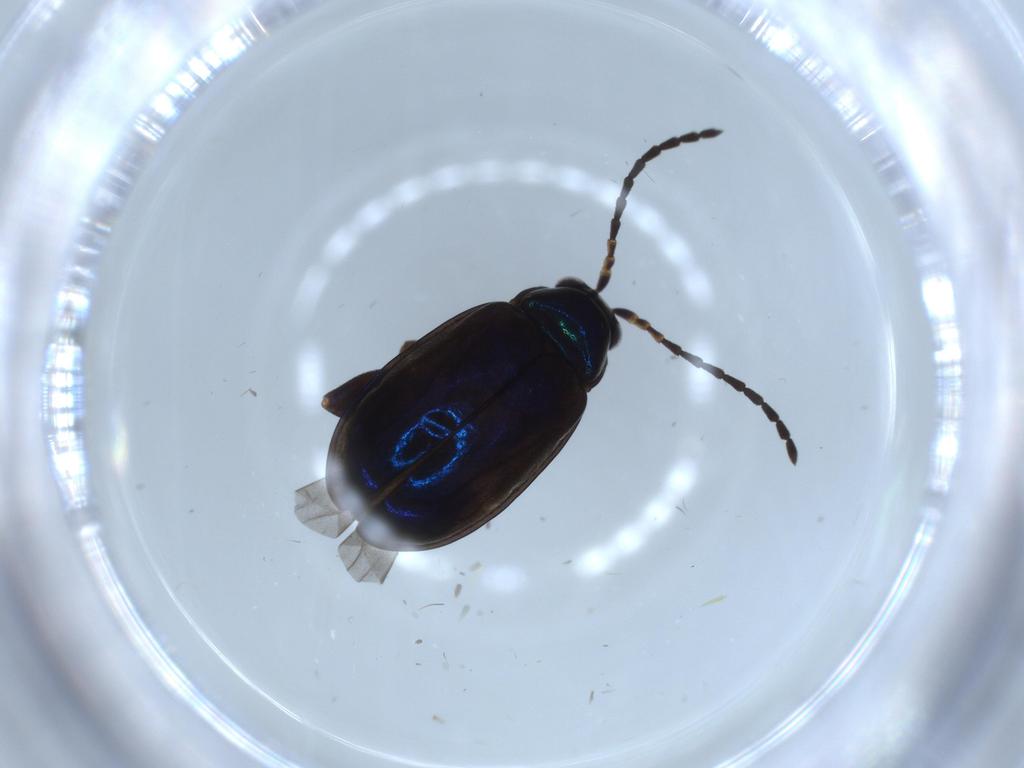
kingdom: Animalia
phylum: Arthropoda
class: Insecta
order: Coleoptera
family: Chrysomelidae
